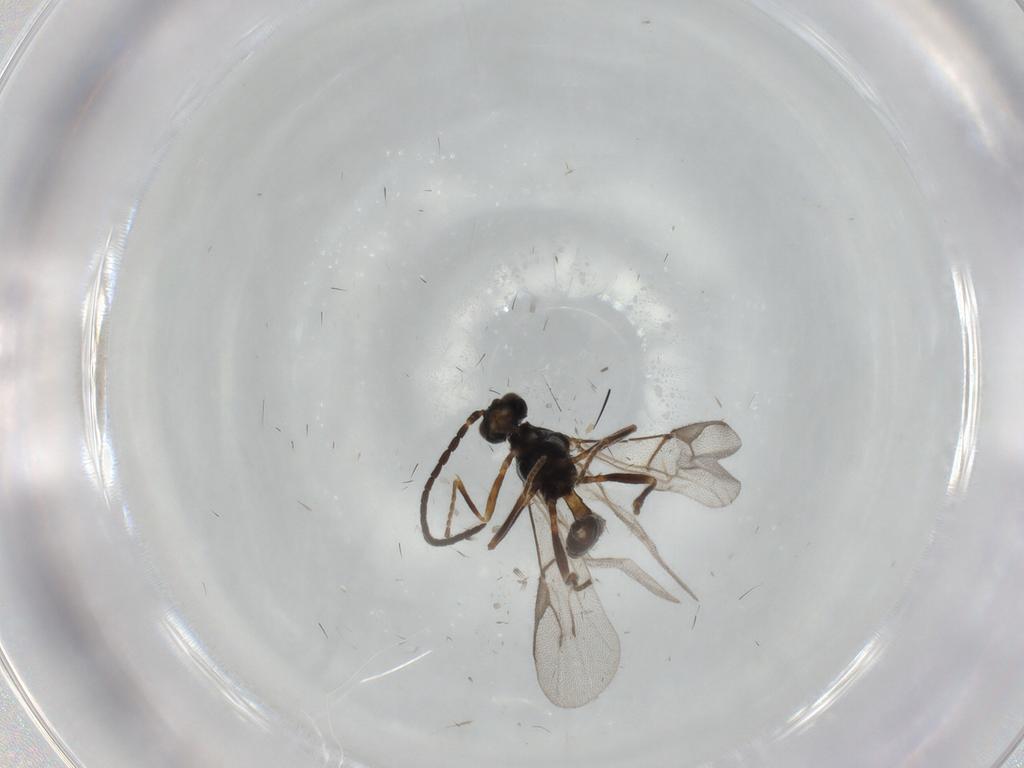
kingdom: Animalia
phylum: Arthropoda
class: Insecta
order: Hymenoptera
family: Braconidae
